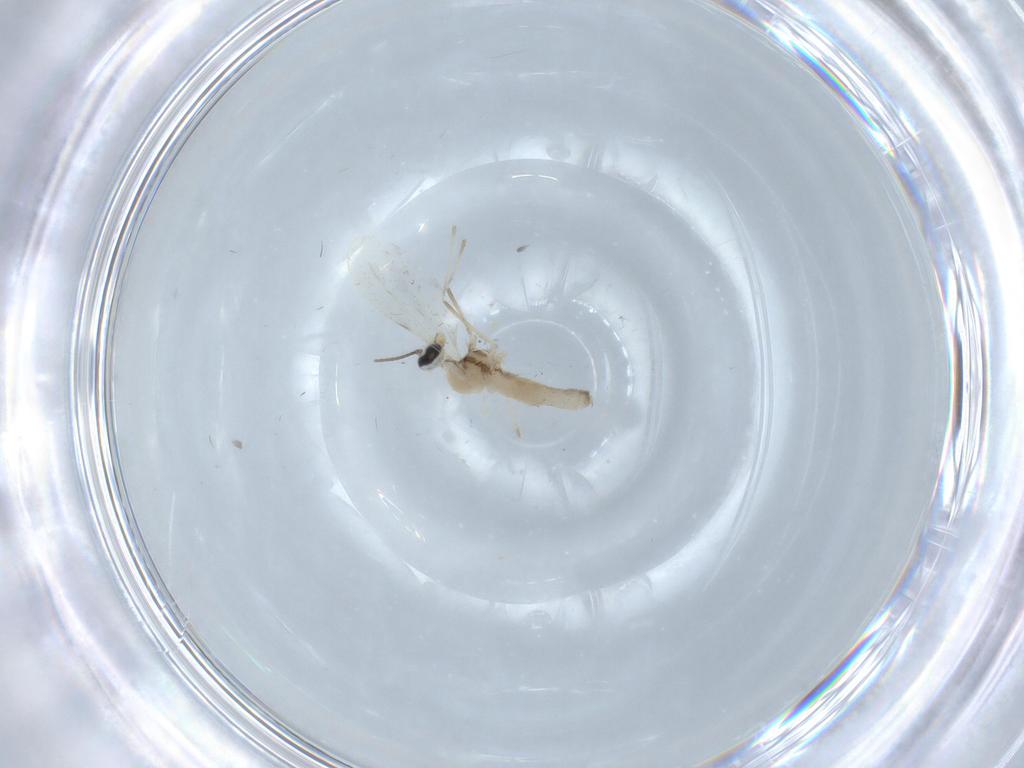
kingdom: Animalia
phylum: Arthropoda
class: Insecta
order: Diptera
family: Cecidomyiidae
